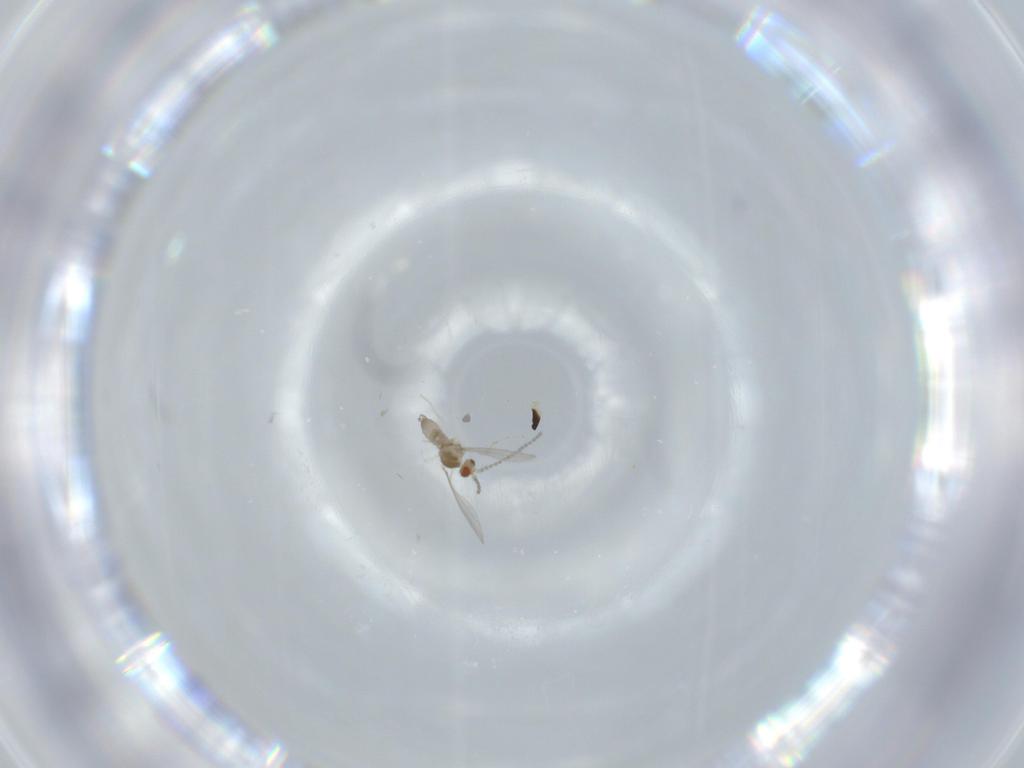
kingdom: Animalia
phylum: Arthropoda
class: Insecta
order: Diptera
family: Cecidomyiidae
